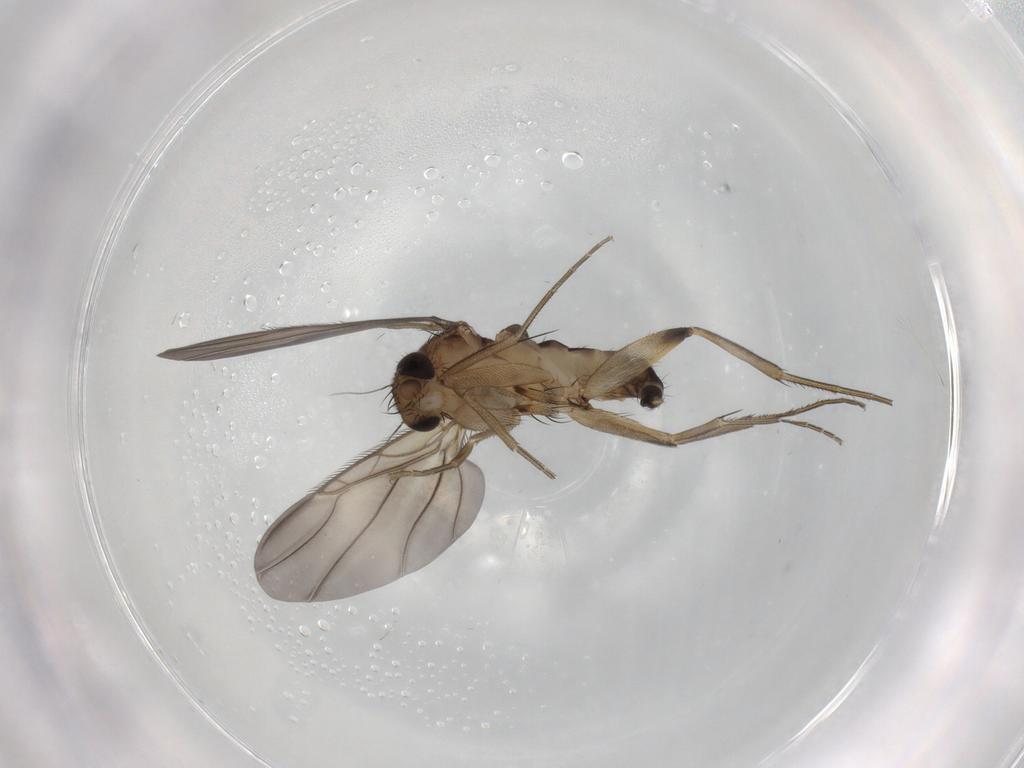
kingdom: Animalia
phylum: Arthropoda
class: Insecta
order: Diptera
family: Phoridae
